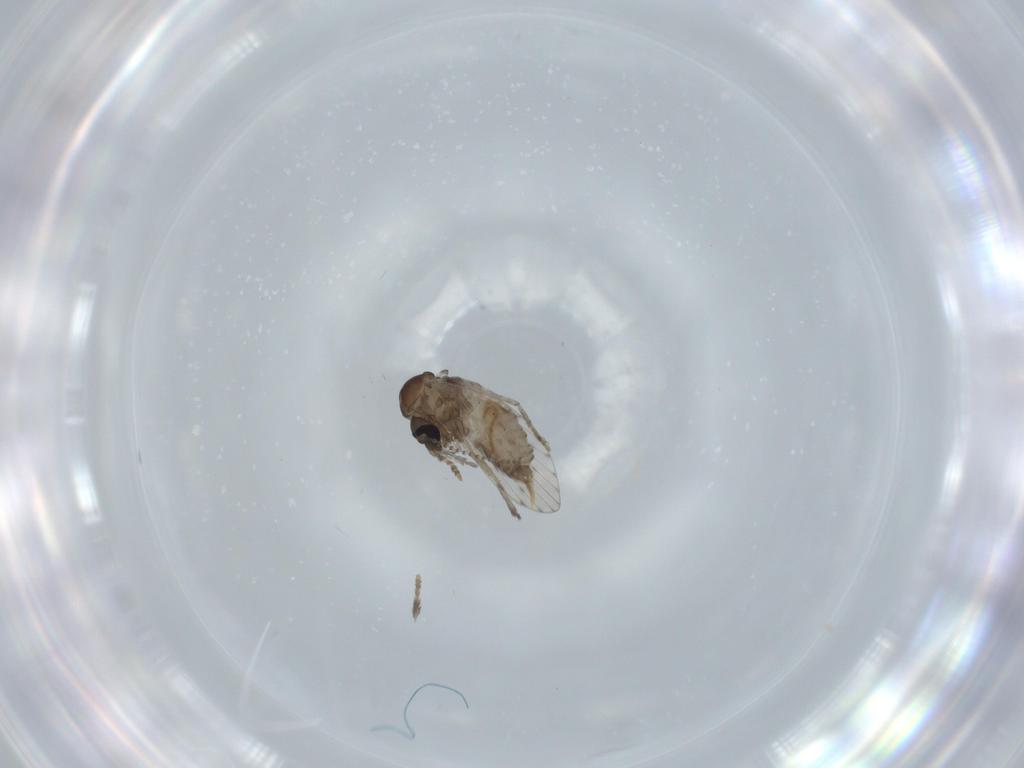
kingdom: Animalia
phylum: Arthropoda
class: Insecta
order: Diptera
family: Psychodidae
